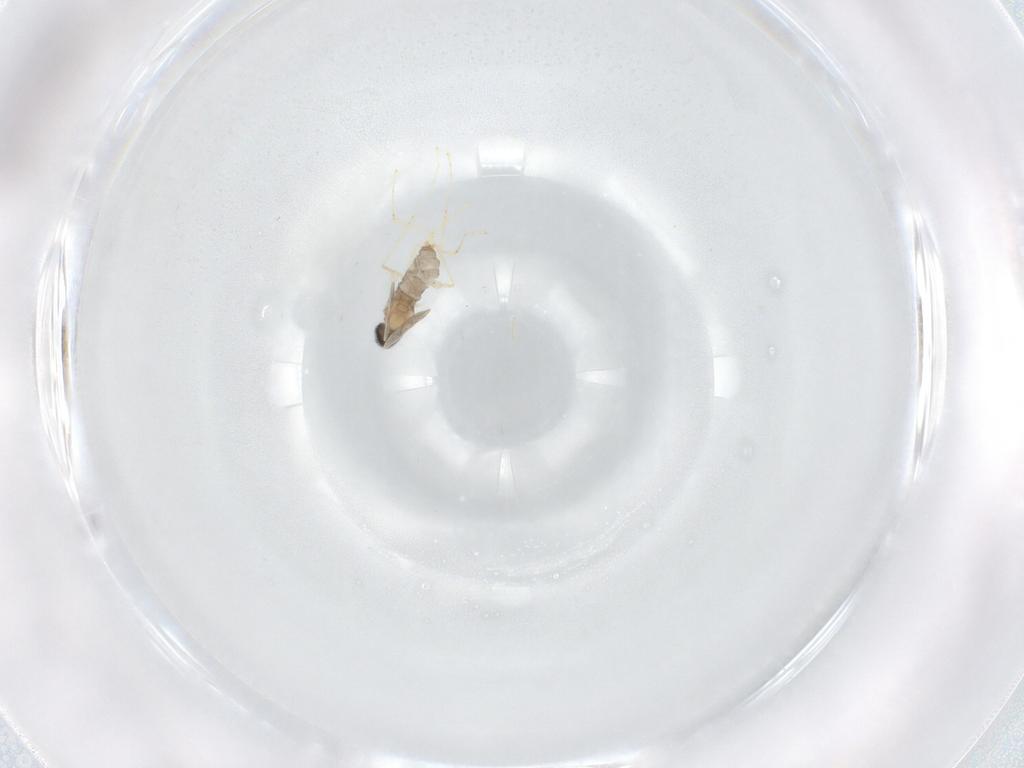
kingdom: Animalia
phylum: Arthropoda
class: Insecta
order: Diptera
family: Cecidomyiidae
